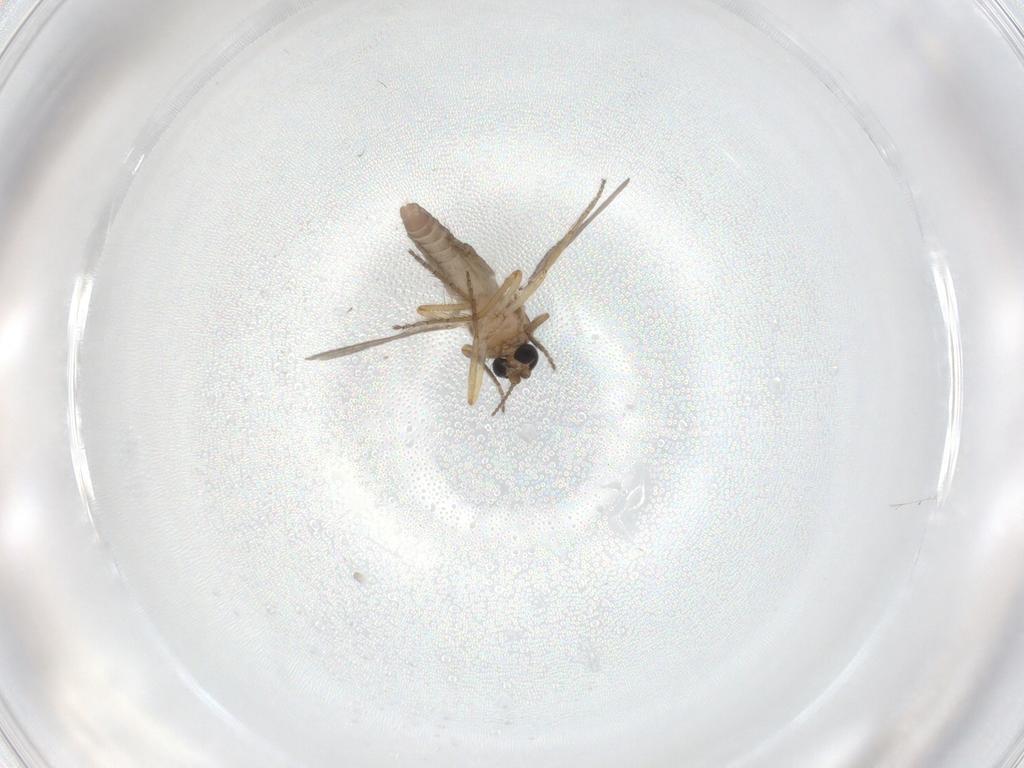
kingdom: Animalia
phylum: Arthropoda
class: Insecta
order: Diptera
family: Ceratopogonidae
